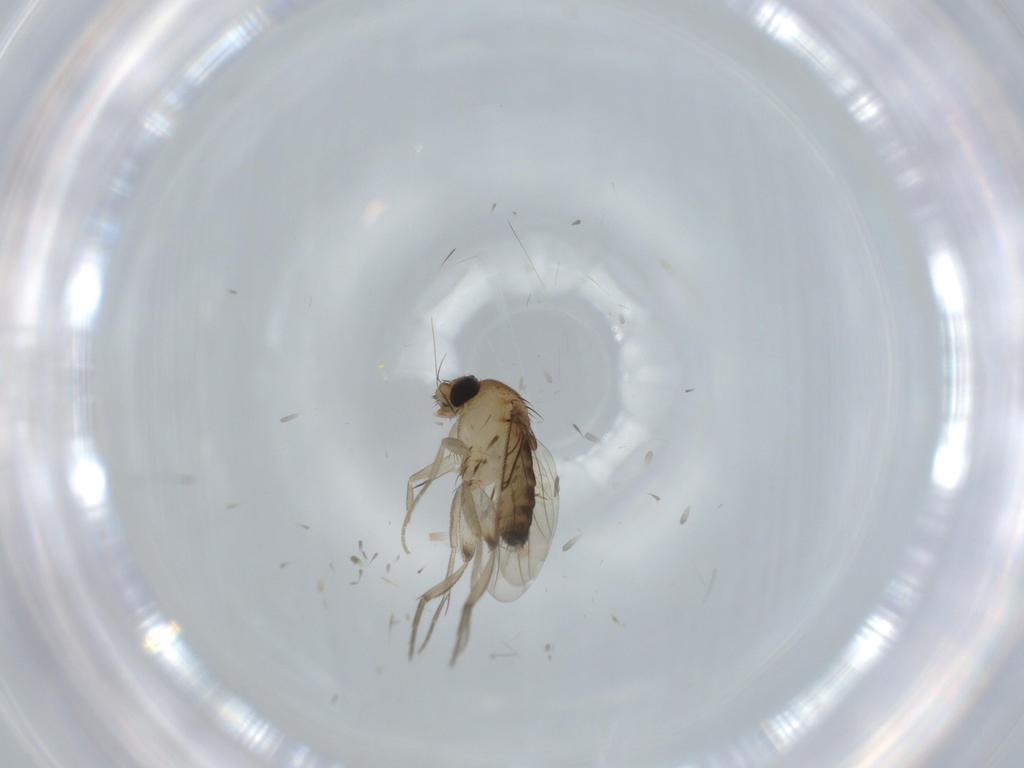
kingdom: Animalia
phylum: Arthropoda
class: Insecta
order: Diptera
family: Phoridae
